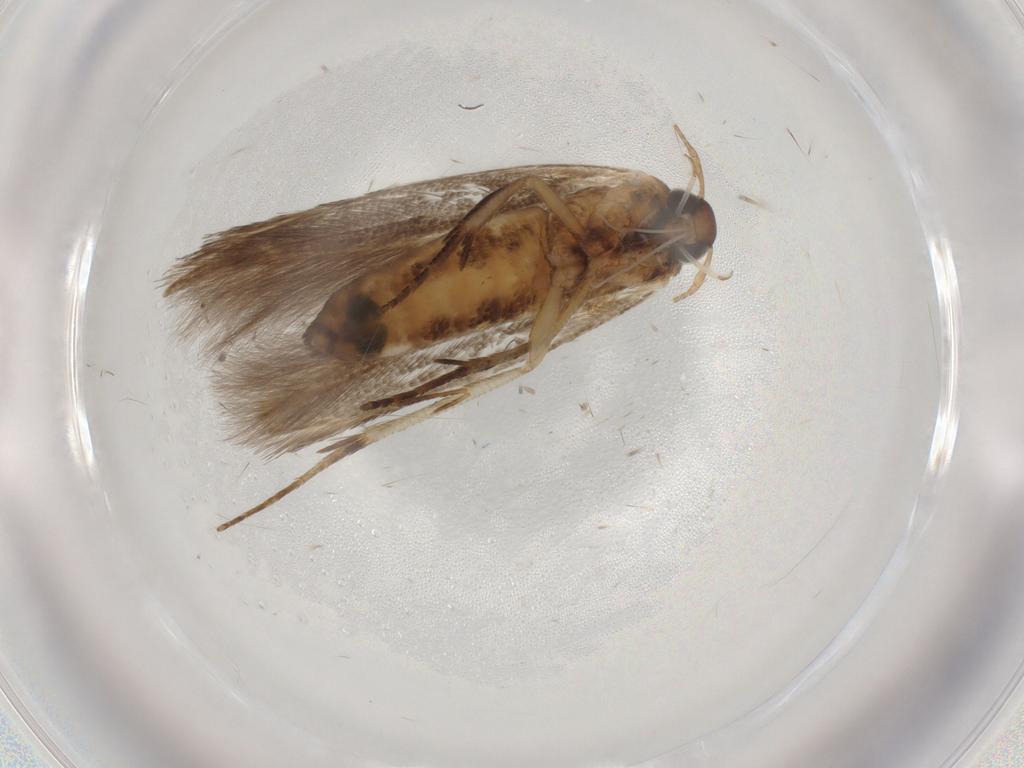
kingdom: Animalia
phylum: Arthropoda
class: Insecta
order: Lepidoptera
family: Cosmopterigidae
